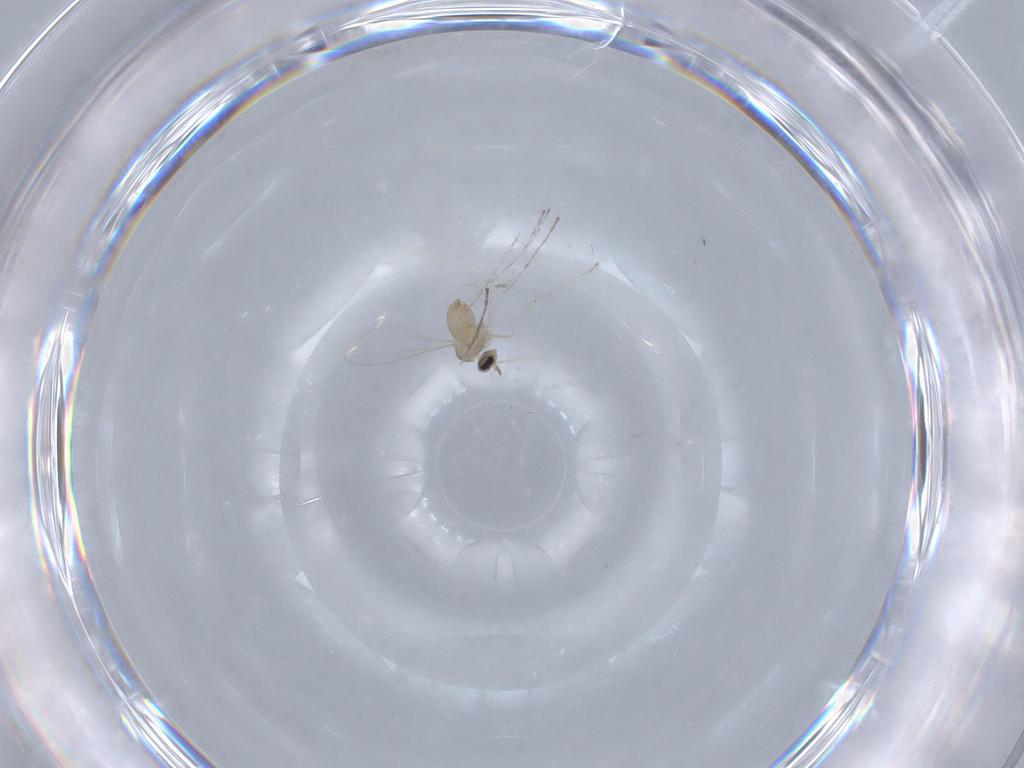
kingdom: Animalia
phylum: Arthropoda
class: Insecta
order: Diptera
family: Cecidomyiidae
